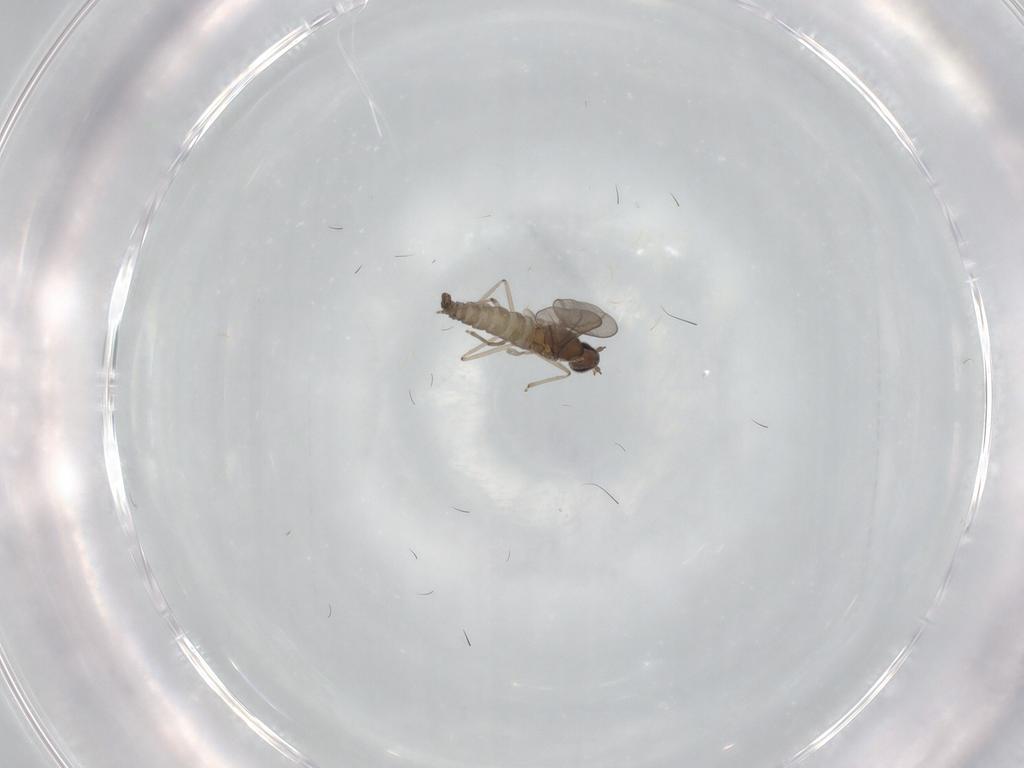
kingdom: Animalia
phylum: Arthropoda
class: Insecta
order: Diptera
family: Cecidomyiidae
